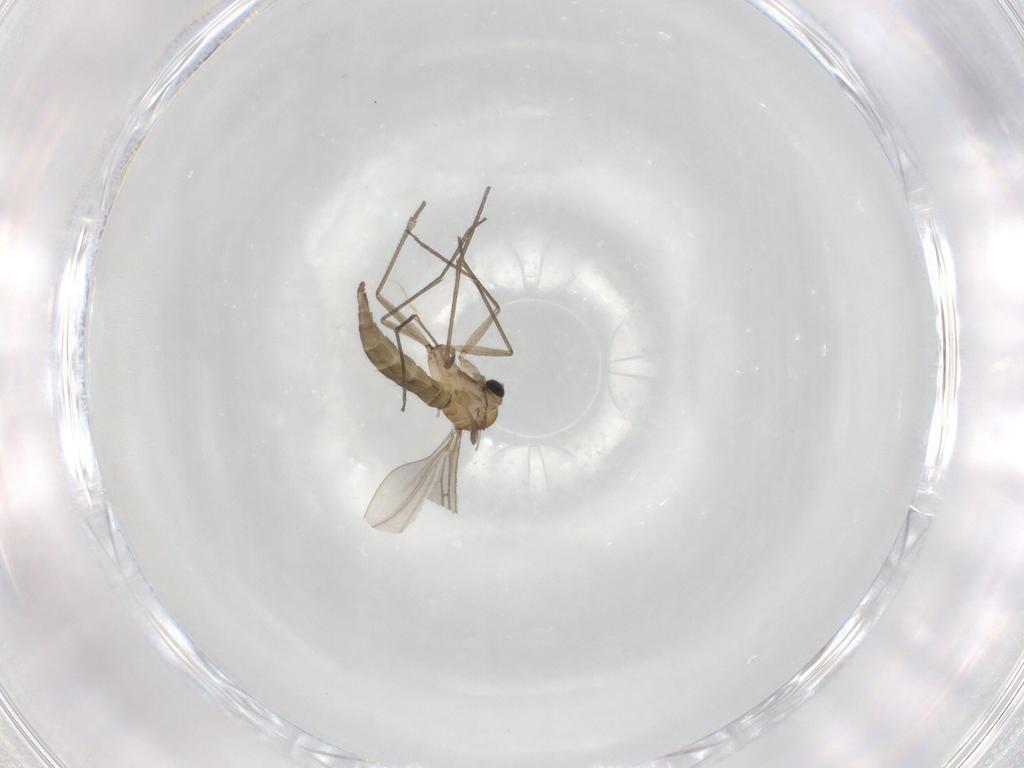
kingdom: Animalia
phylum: Arthropoda
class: Insecta
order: Diptera
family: Sciaridae
